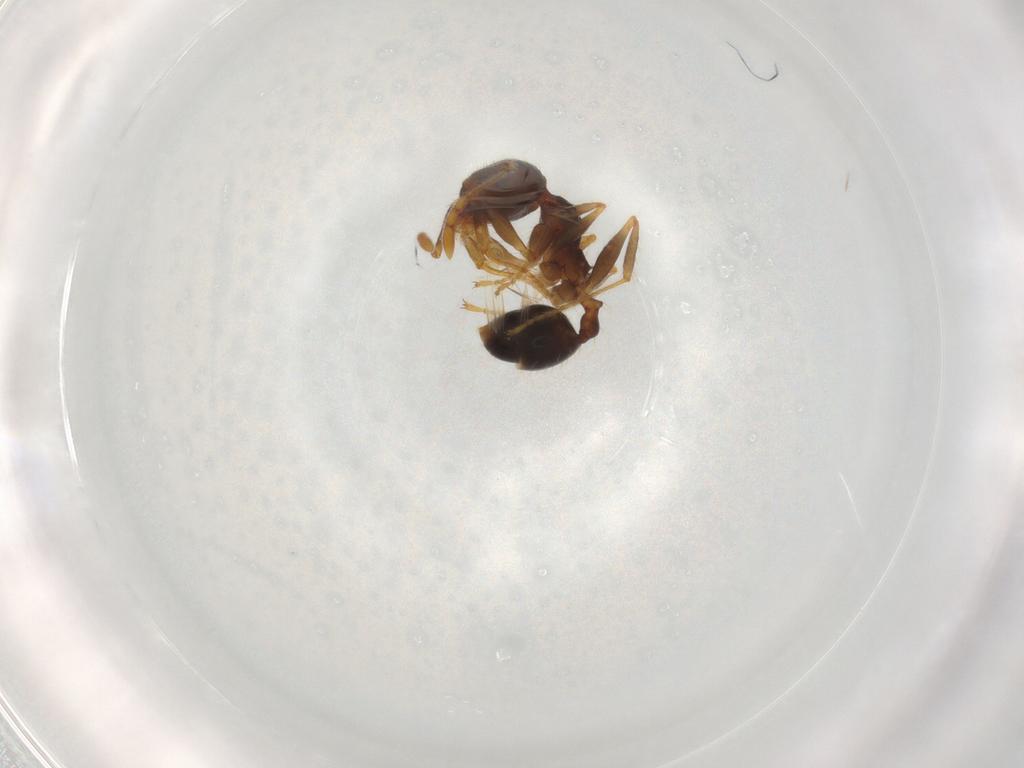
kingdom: Animalia
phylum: Arthropoda
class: Insecta
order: Hymenoptera
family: Formicidae
